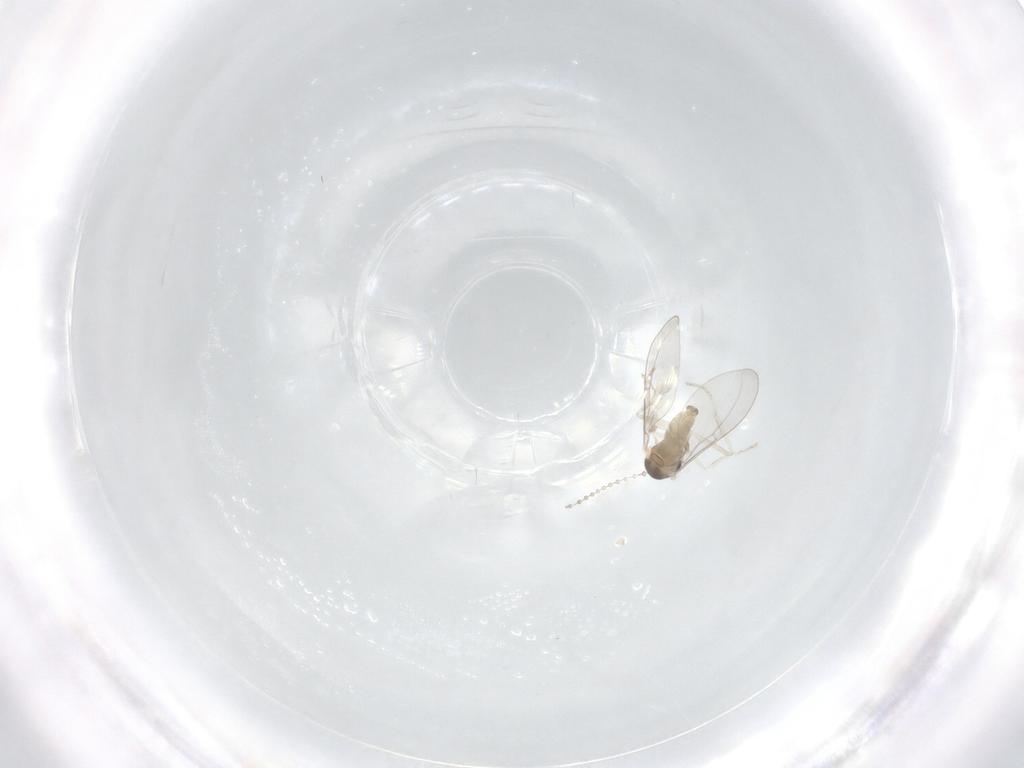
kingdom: Animalia
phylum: Arthropoda
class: Insecta
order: Diptera
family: Cecidomyiidae
